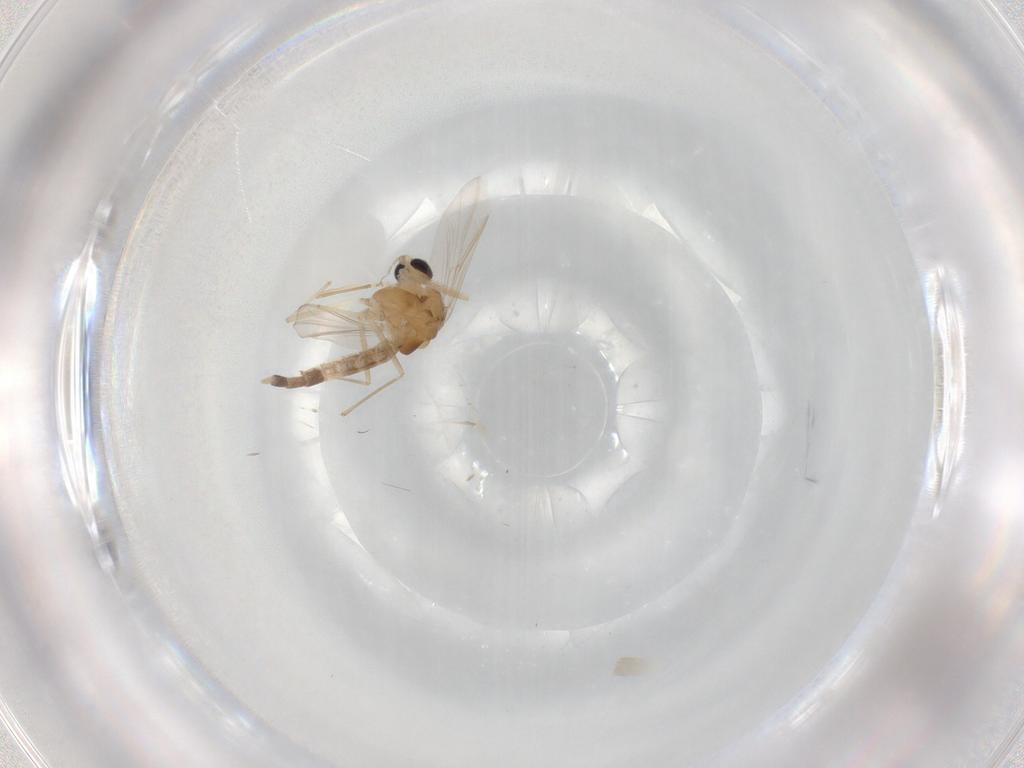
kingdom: Animalia
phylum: Arthropoda
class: Insecta
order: Diptera
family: Chironomidae
